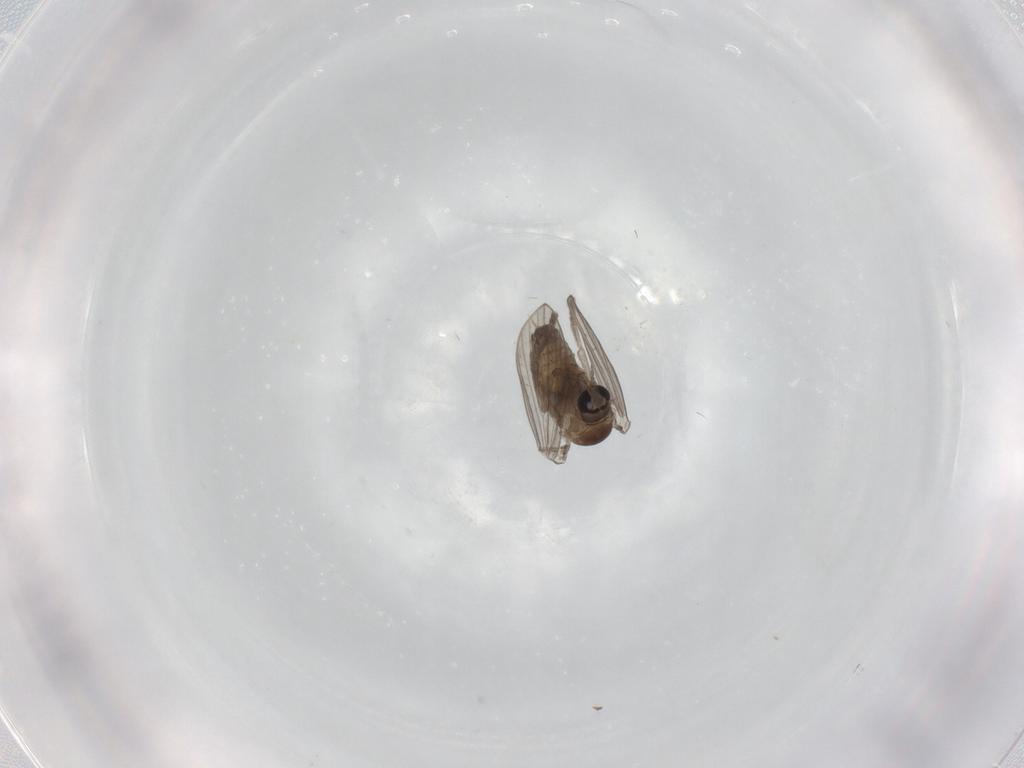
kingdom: Animalia
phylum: Arthropoda
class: Insecta
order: Diptera
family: Psychodidae
